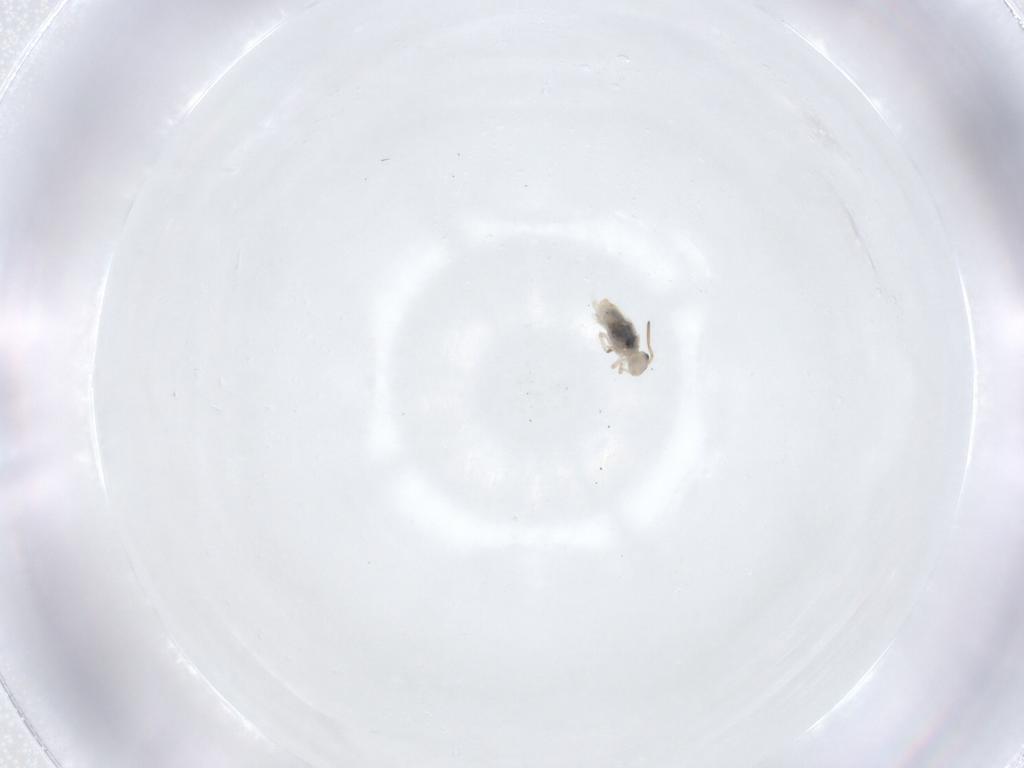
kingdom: Animalia
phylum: Arthropoda
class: Collembola
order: Symphypleona
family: Katiannidae
